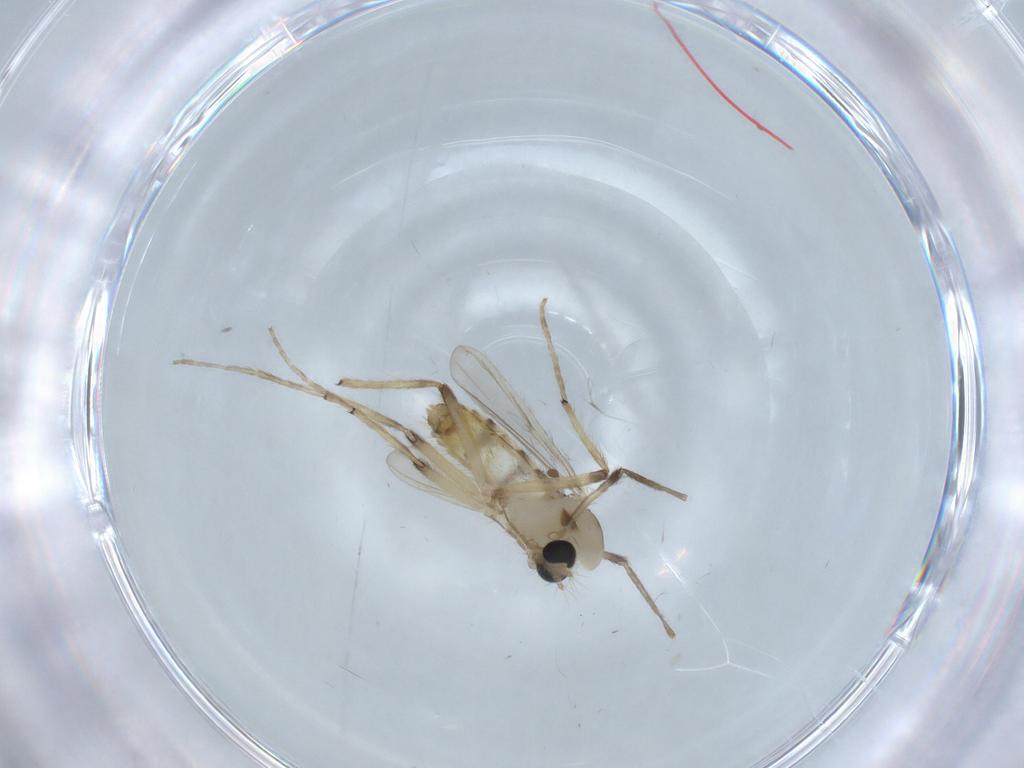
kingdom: Animalia
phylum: Arthropoda
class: Insecta
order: Diptera
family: Chironomidae
